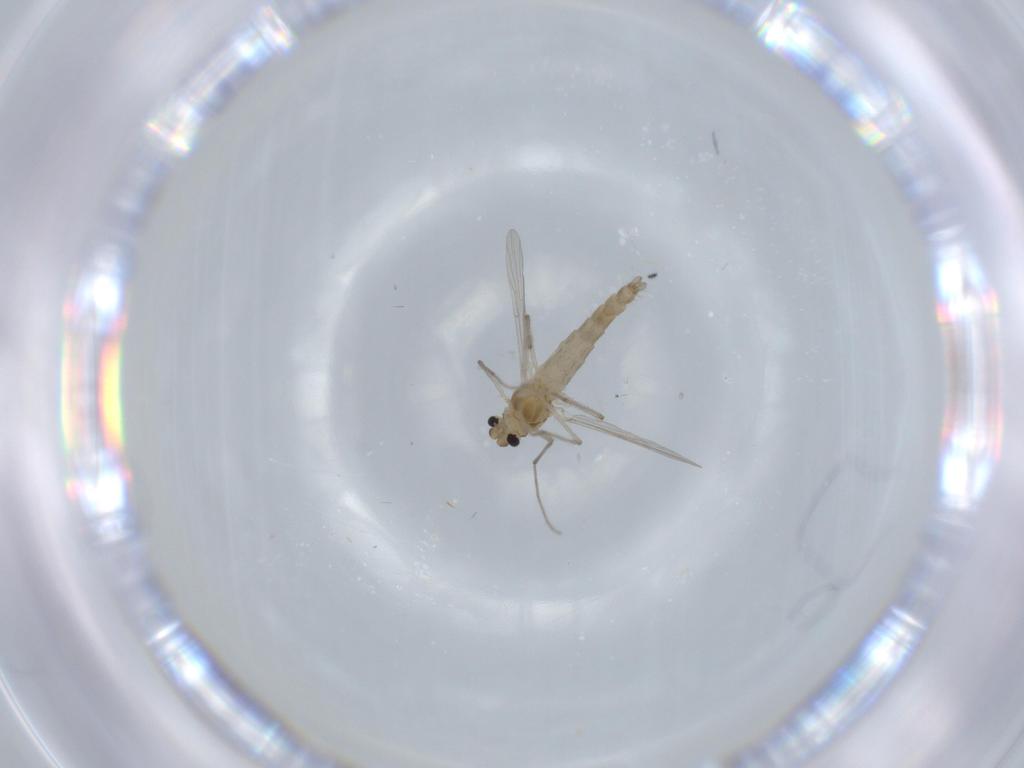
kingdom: Animalia
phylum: Arthropoda
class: Insecta
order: Diptera
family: Chironomidae
